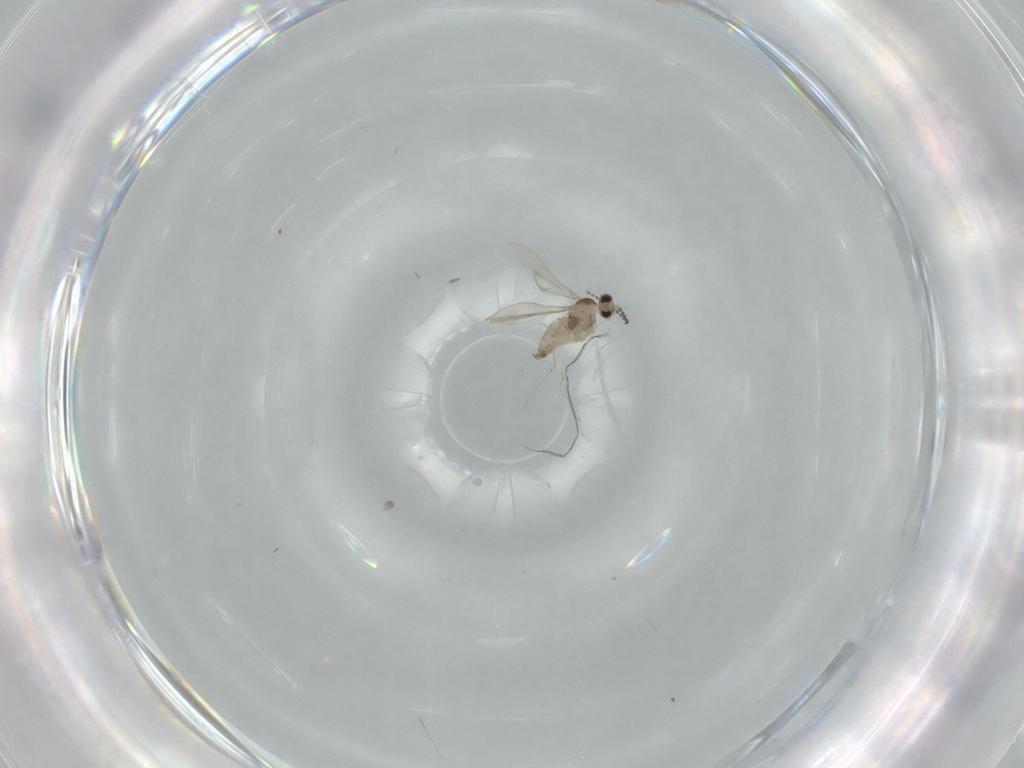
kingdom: Animalia
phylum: Arthropoda
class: Insecta
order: Diptera
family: Cecidomyiidae
